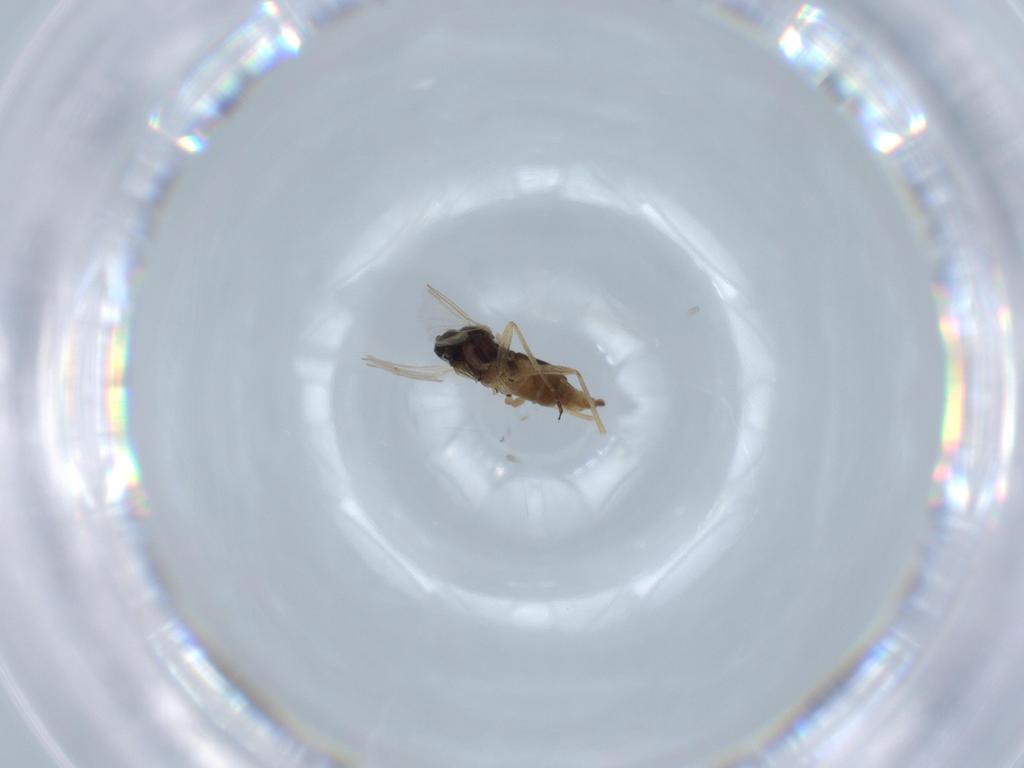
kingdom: Animalia
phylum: Arthropoda
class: Insecta
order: Diptera
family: Sciaridae
